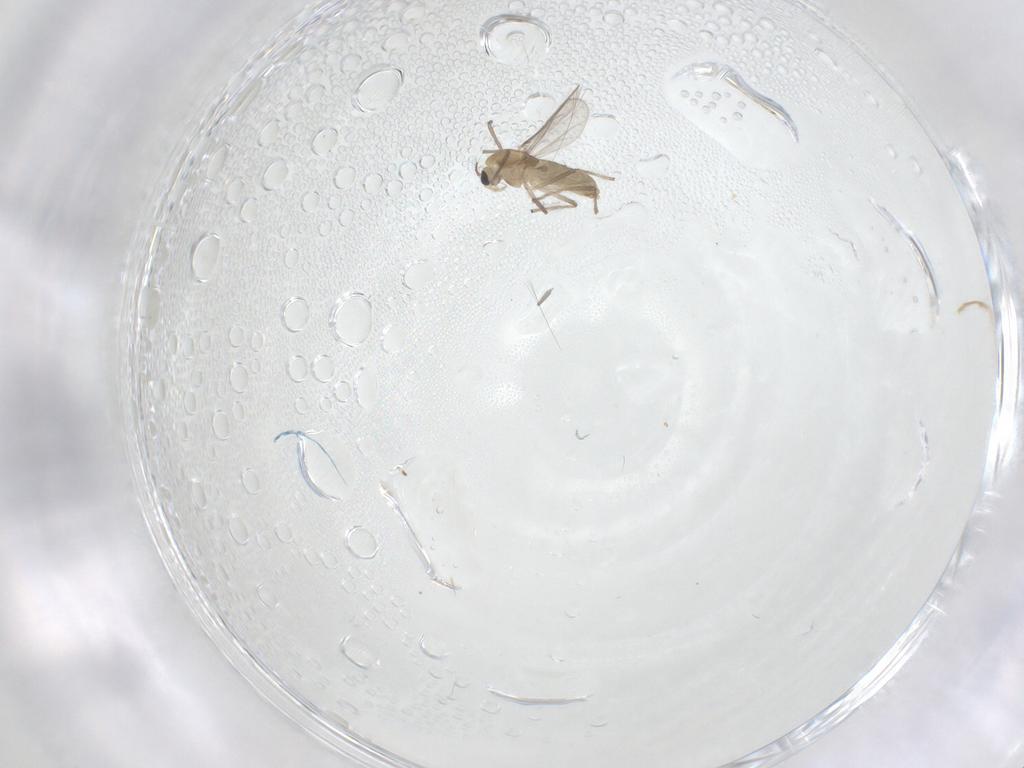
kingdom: Animalia
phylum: Arthropoda
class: Insecta
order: Diptera
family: Chironomidae
